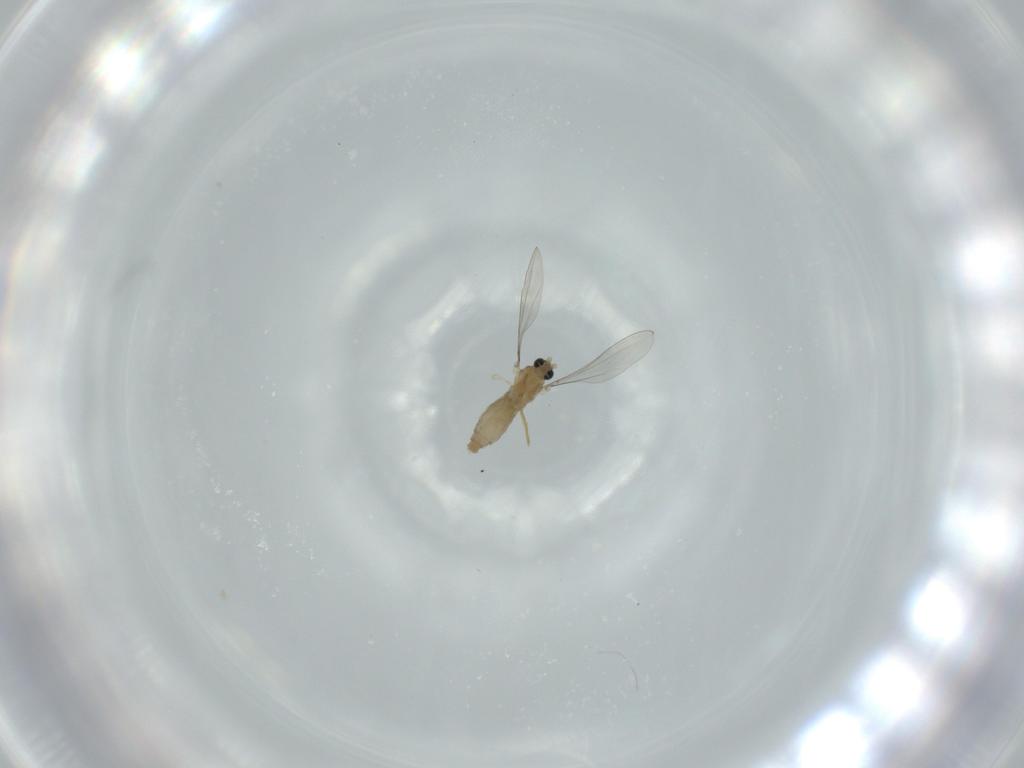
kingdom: Animalia
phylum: Arthropoda
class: Insecta
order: Diptera
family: Cecidomyiidae
